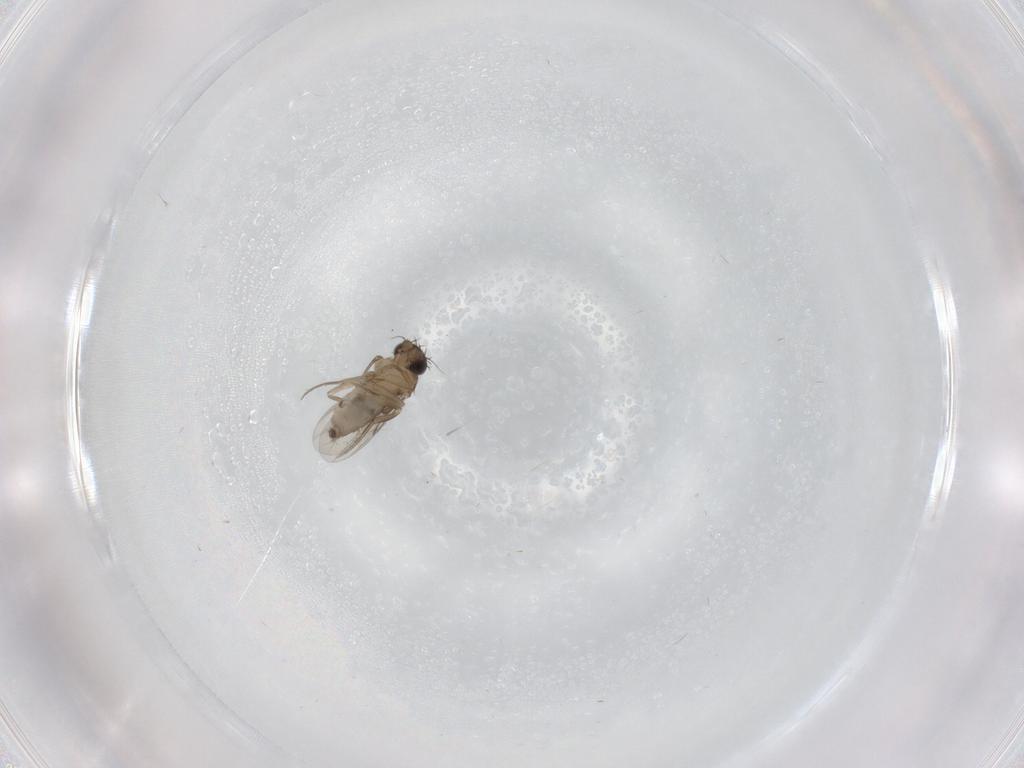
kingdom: Animalia
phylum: Arthropoda
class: Insecta
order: Diptera
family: Phoridae
